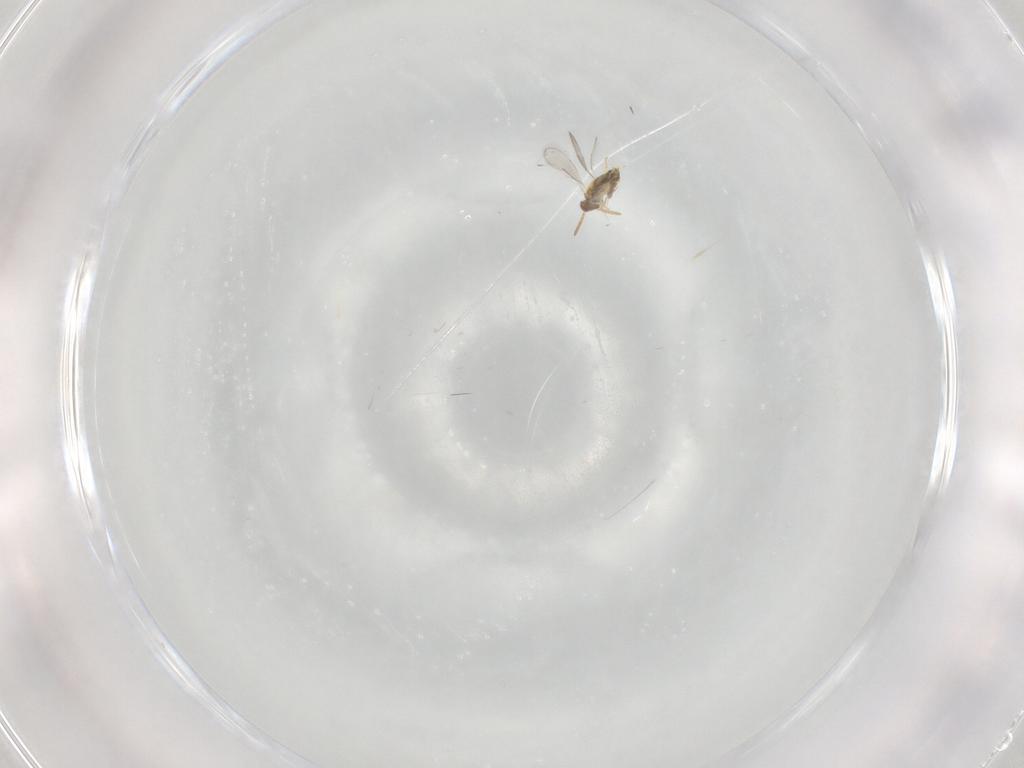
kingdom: Animalia
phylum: Arthropoda
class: Insecta
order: Hymenoptera
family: Aphelinidae
